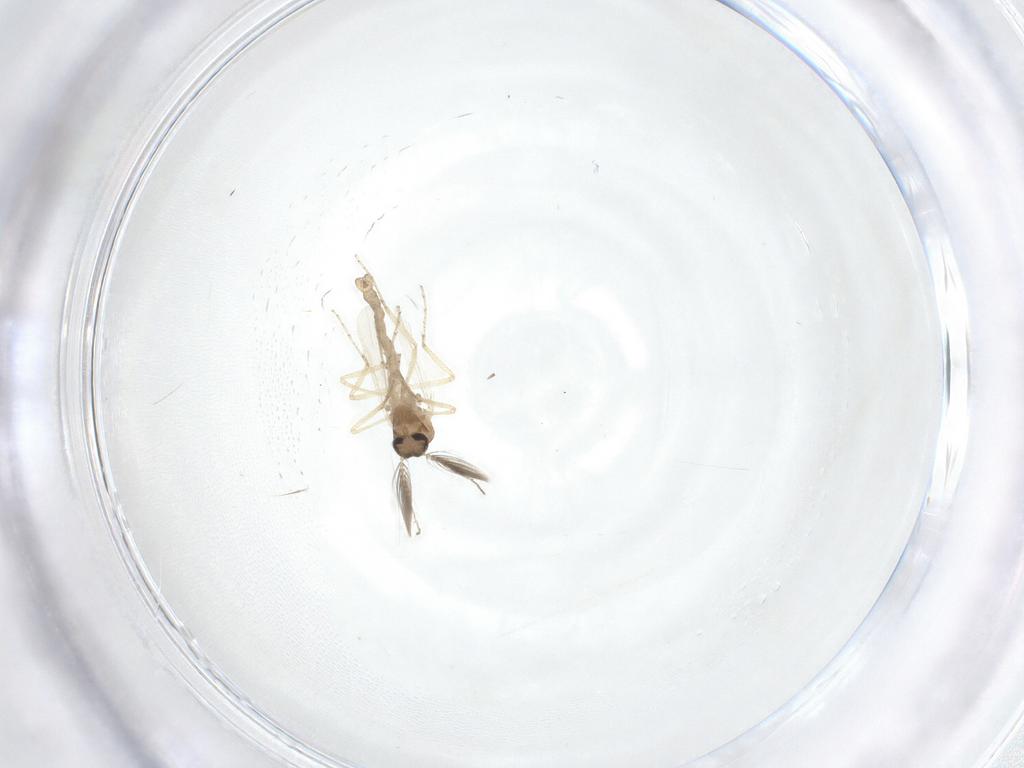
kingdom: Animalia
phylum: Arthropoda
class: Insecta
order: Diptera
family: Ceratopogonidae
